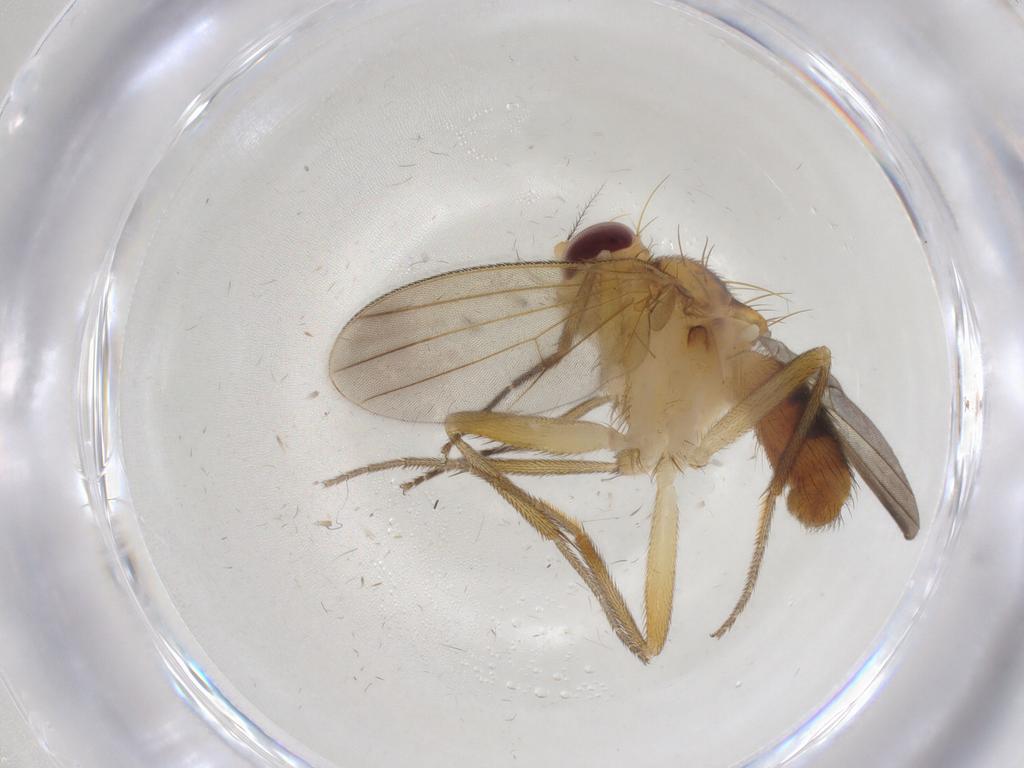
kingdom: Animalia
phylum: Arthropoda
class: Insecta
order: Diptera
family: Clusiidae
